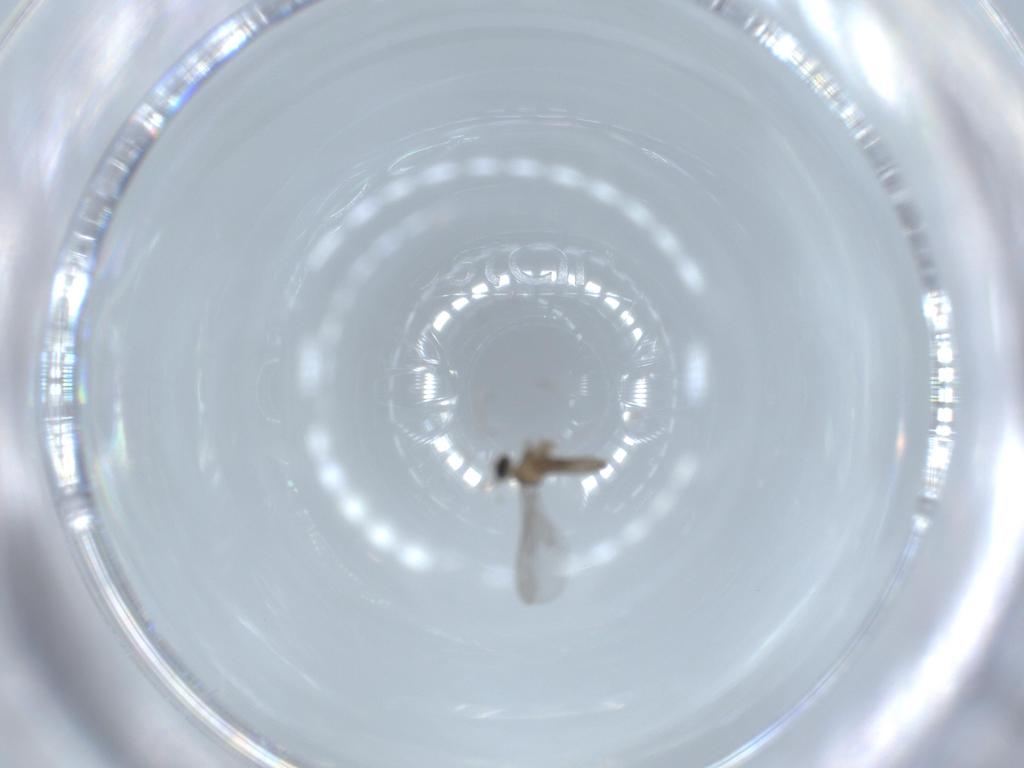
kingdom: Animalia
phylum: Arthropoda
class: Insecta
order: Diptera
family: Cecidomyiidae
